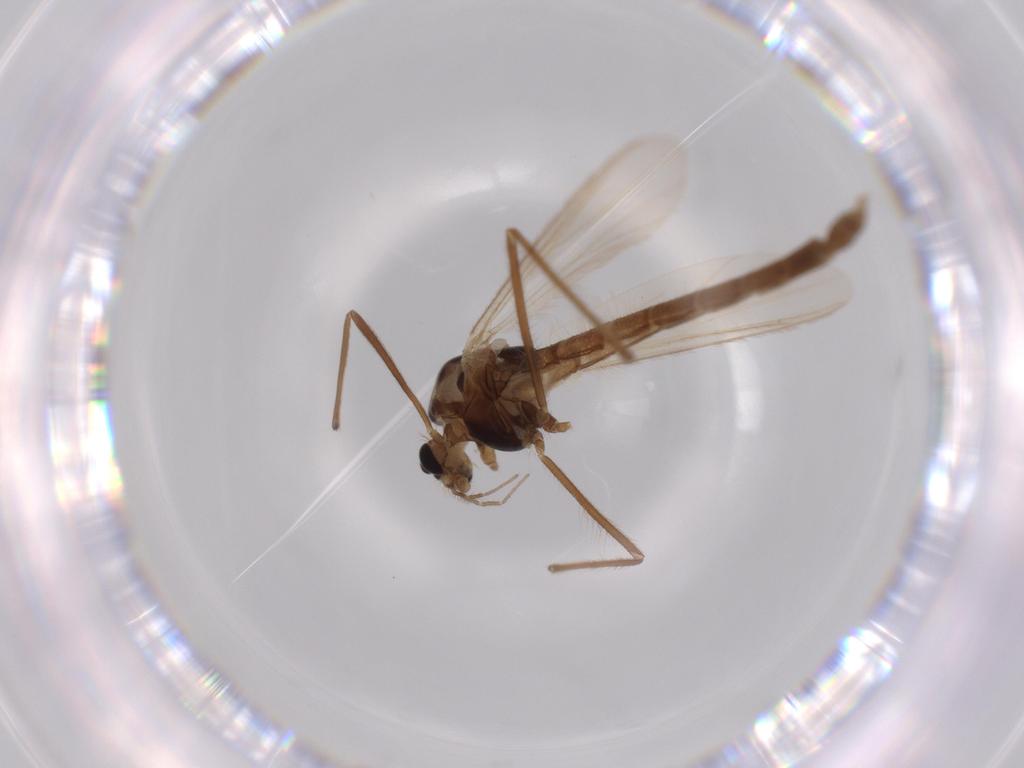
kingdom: Animalia
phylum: Arthropoda
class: Insecta
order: Diptera
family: Chironomidae
